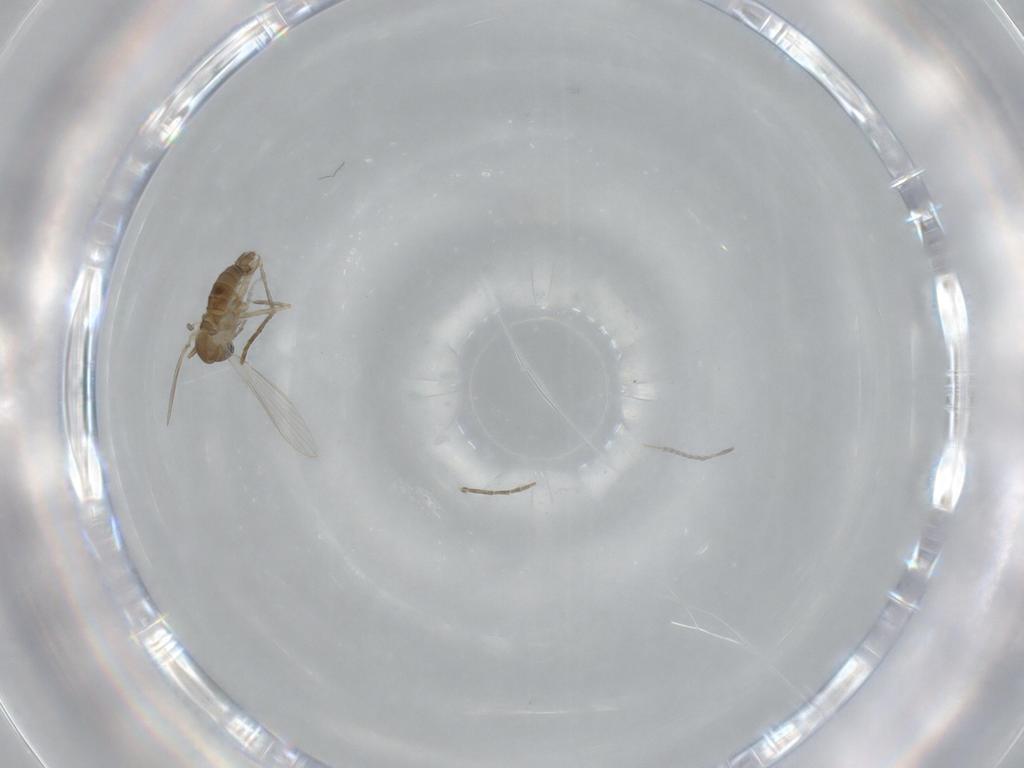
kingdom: Animalia
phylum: Arthropoda
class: Insecta
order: Diptera
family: Psychodidae
